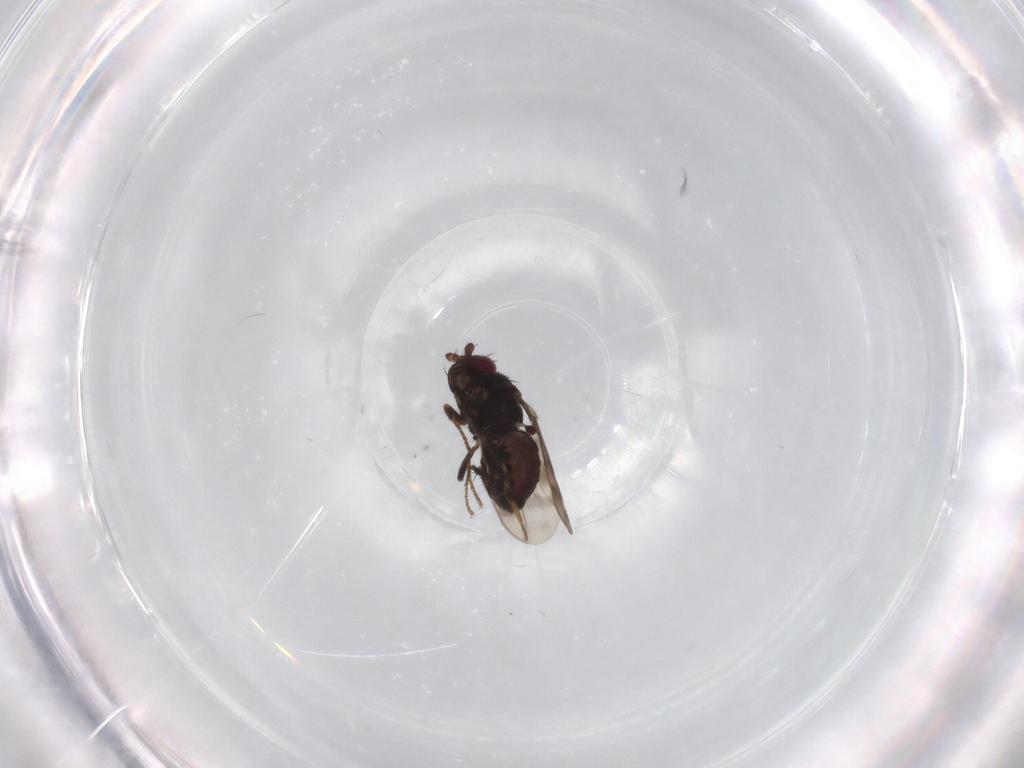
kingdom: Animalia
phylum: Arthropoda
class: Insecta
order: Diptera
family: Sphaeroceridae
